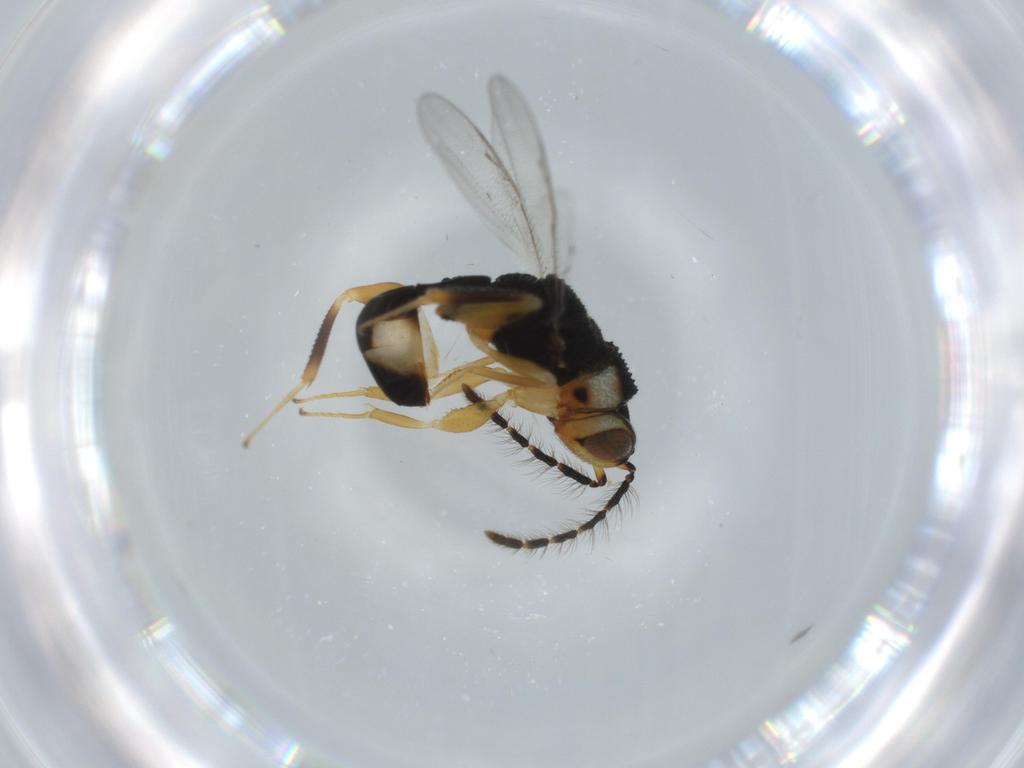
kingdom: Animalia
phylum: Arthropoda
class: Insecta
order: Hymenoptera
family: Eurytomidae
